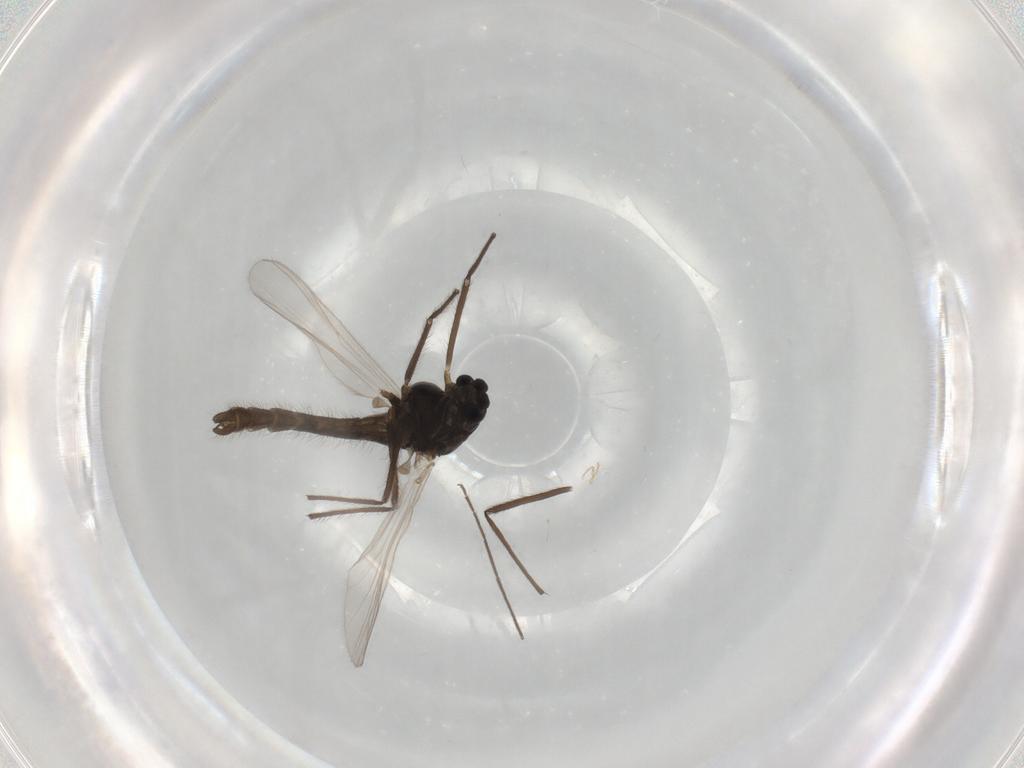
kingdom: Animalia
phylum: Arthropoda
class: Insecta
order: Diptera
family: Chironomidae
